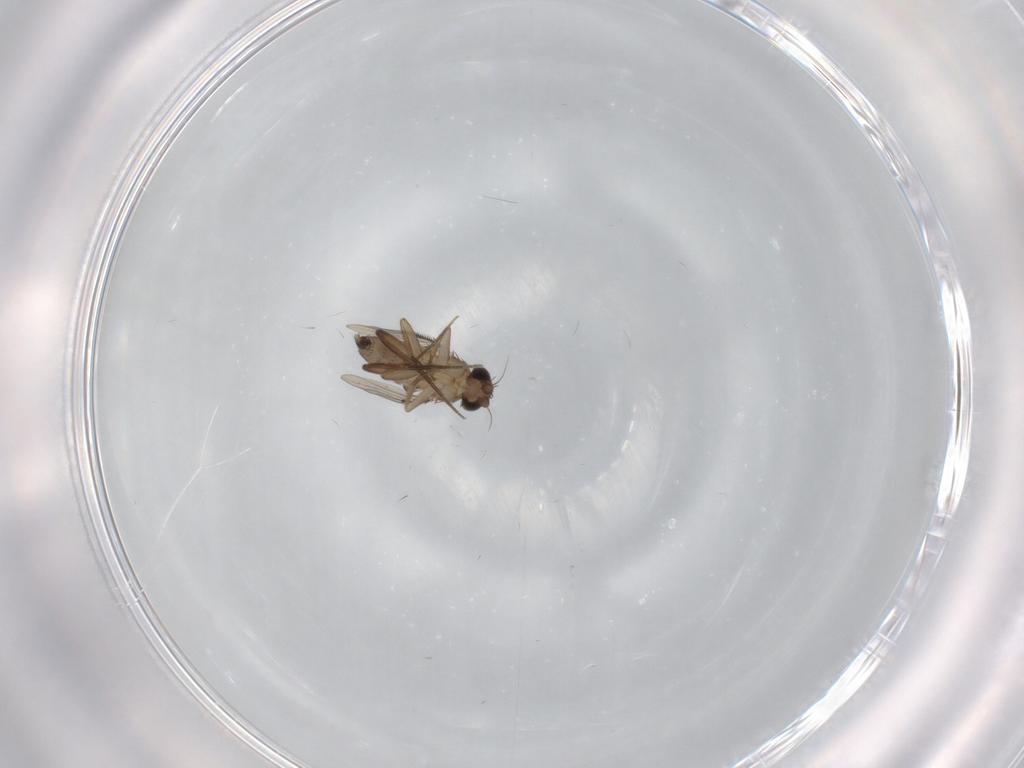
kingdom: Animalia
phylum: Arthropoda
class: Insecta
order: Diptera
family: Phoridae
